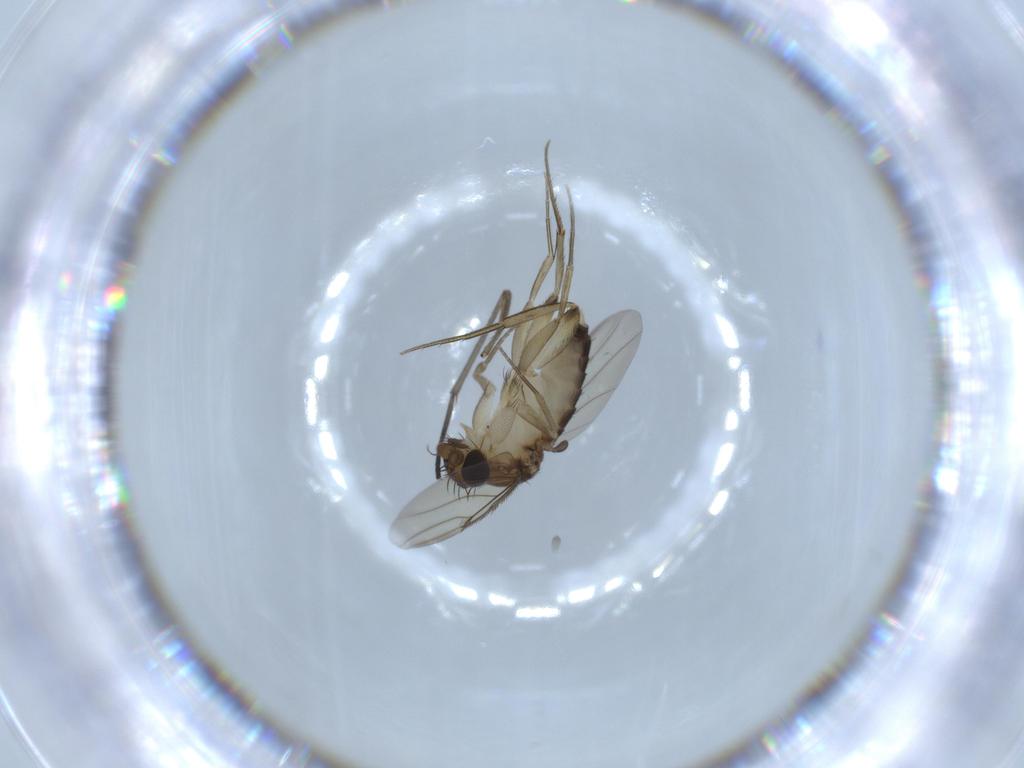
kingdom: Animalia
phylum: Arthropoda
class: Insecta
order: Diptera
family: Phoridae
